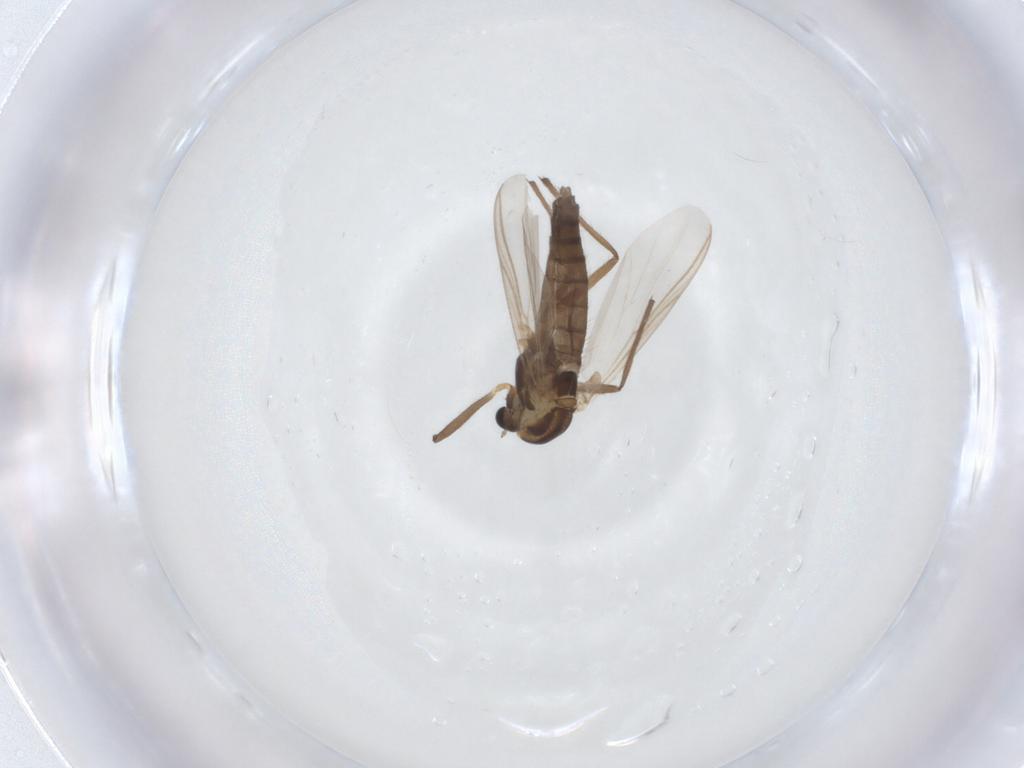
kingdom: Animalia
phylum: Arthropoda
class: Insecta
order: Diptera
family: Chironomidae
